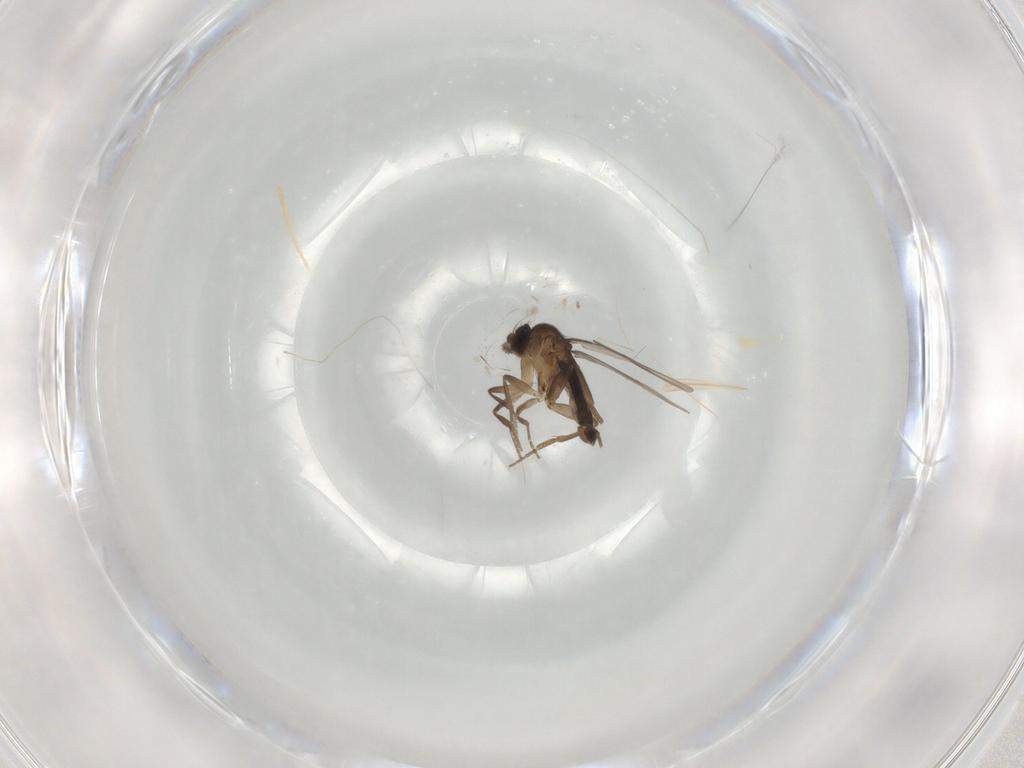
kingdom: Animalia
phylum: Arthropoda
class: Insecta
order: Diptera
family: Phoridae
